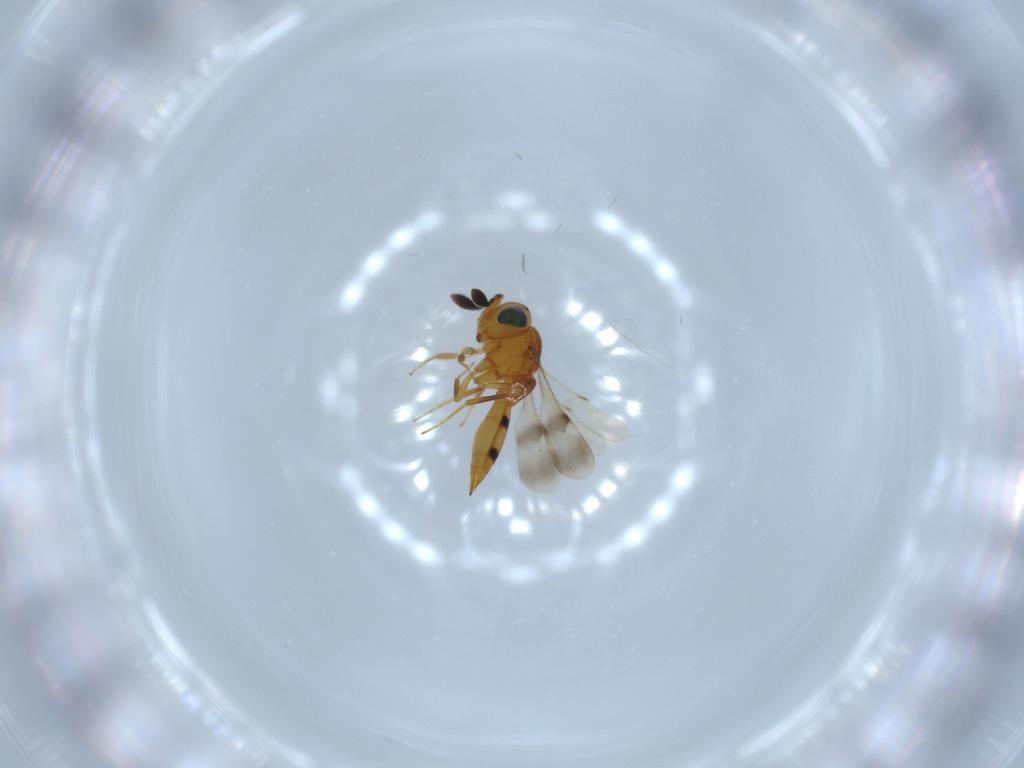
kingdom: Animalia
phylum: Arthropoda
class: Insecta
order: Hymenoptera
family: Scelionidae
